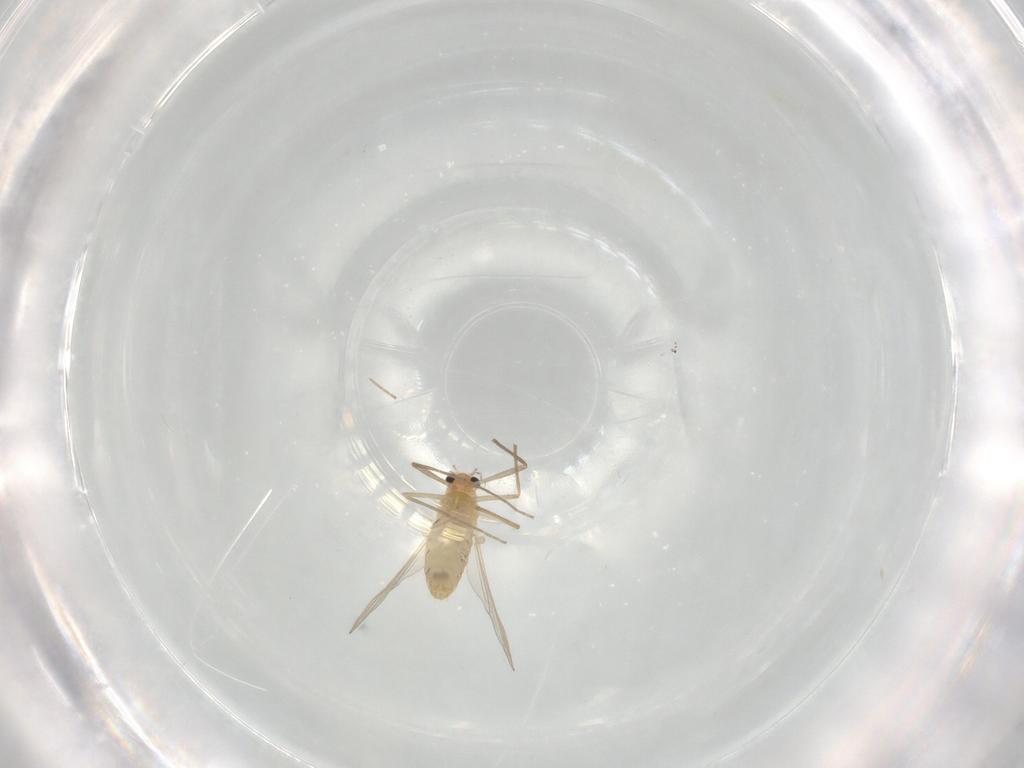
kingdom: Animalia
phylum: Arthropoda
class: Insecta
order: Diptera
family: Chironomidae
